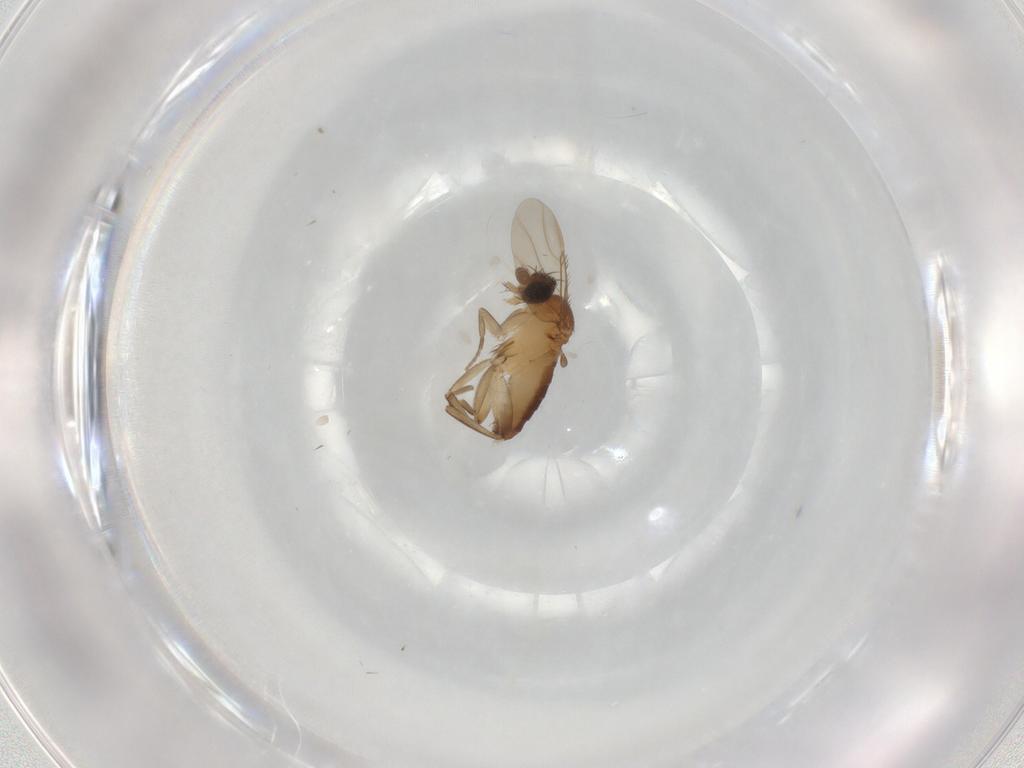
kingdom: Animalia
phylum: Arthropoda
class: Insecta
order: Diptera
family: Phoridae
